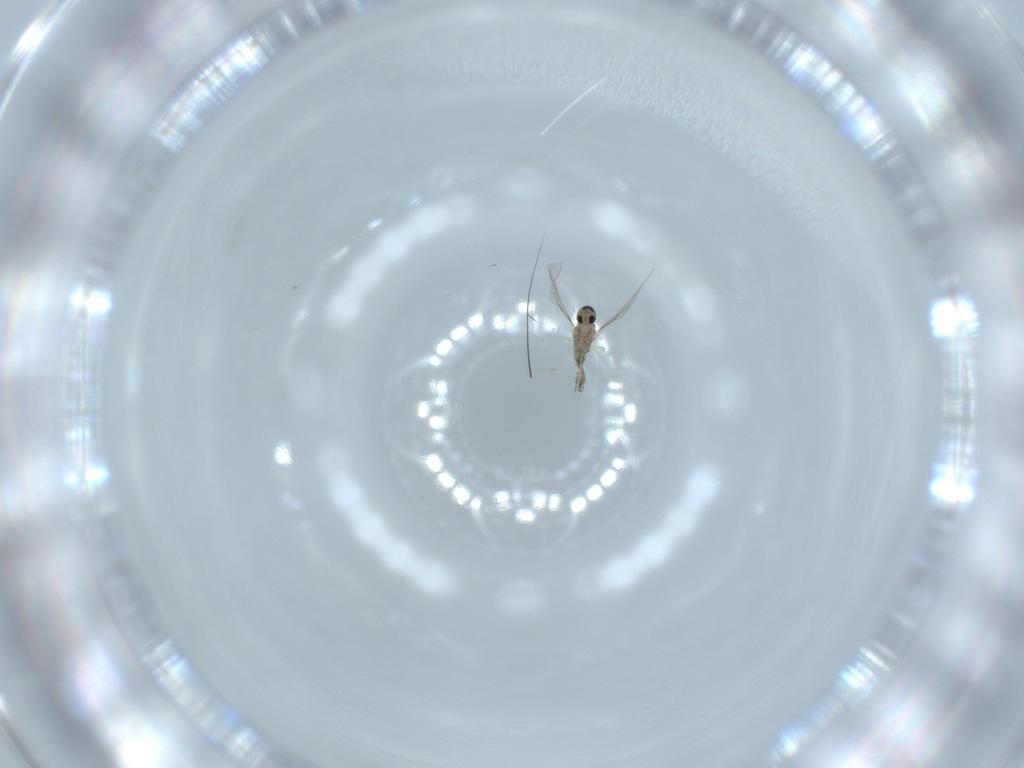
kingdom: Animalia
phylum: Arthropoda
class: Insecta
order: Diptera
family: Cecidomyiidae
